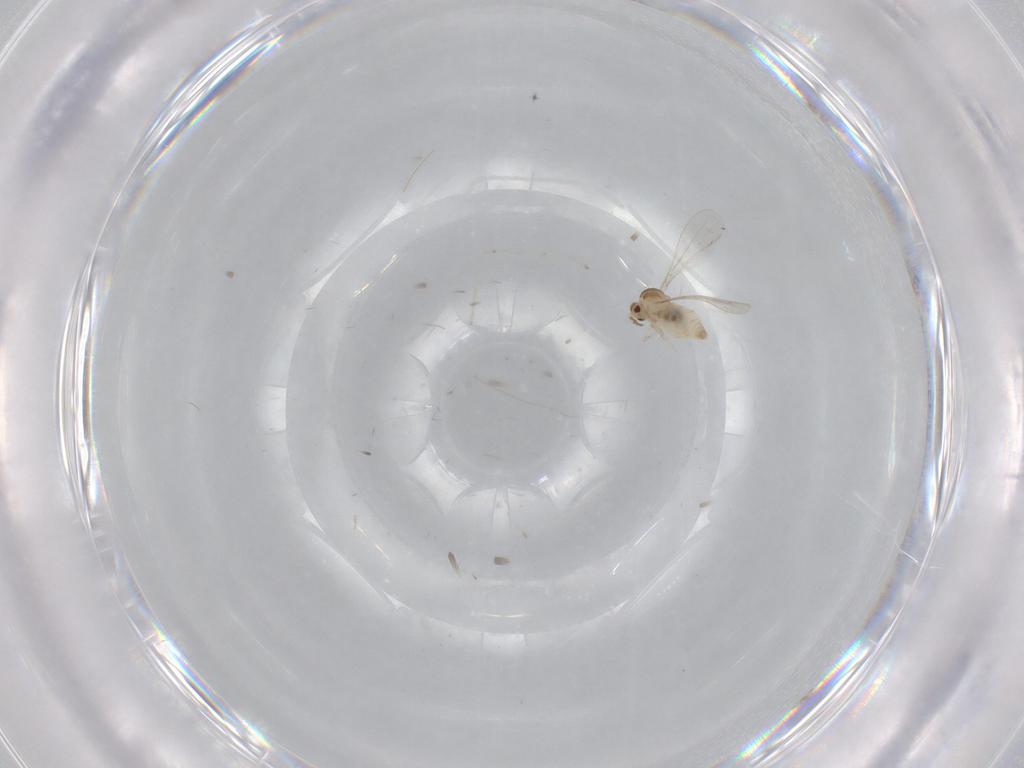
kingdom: Animalia
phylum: Arthropoda
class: Insecta
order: Diptera
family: Cecidomyiidae
